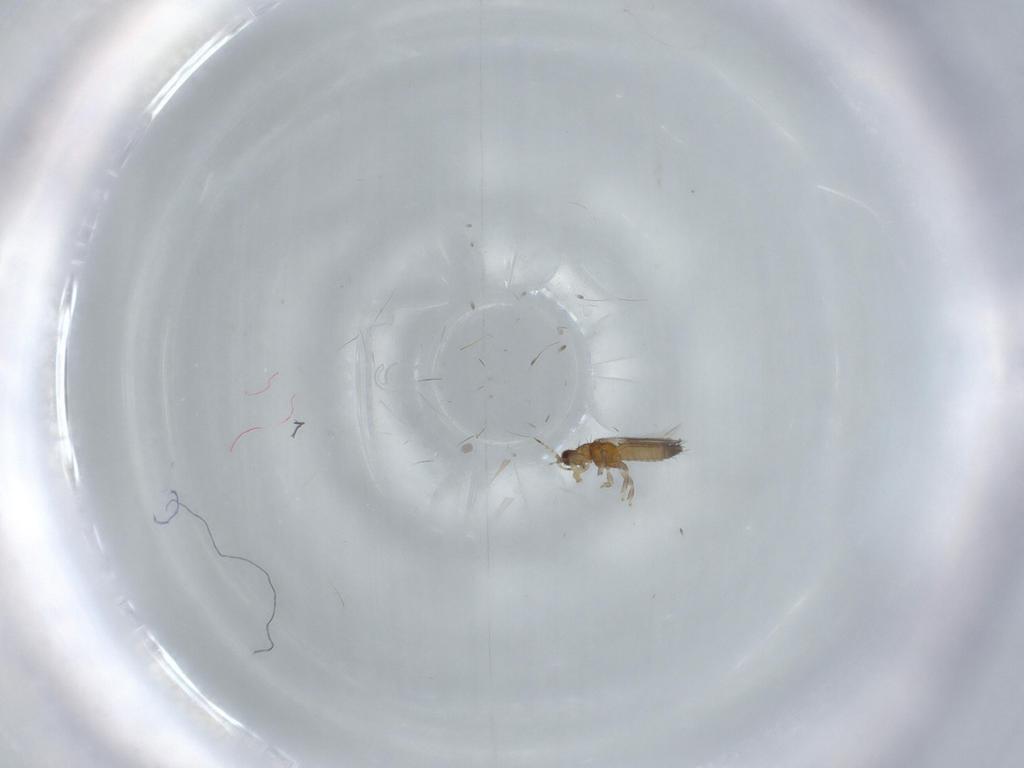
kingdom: Animalia
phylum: Arthropoda
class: Insecta
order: Thysanoptera
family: Thripidae
